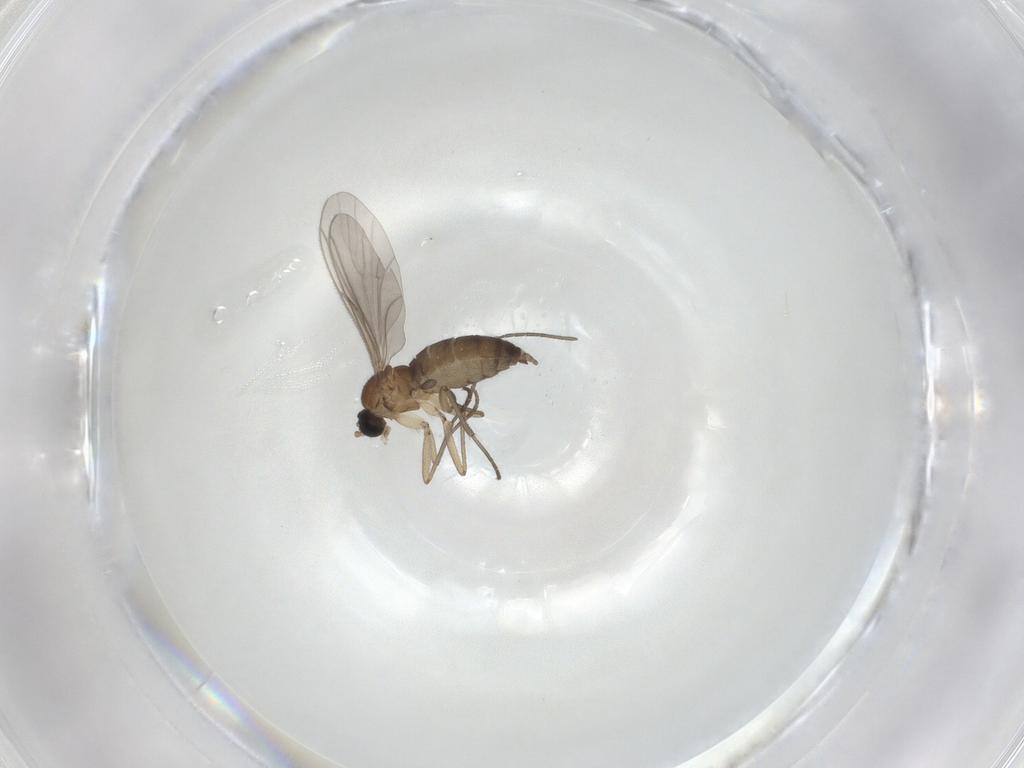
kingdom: Animalia
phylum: Arthropoda
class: Insecta
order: Diptera
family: Sciaridae
